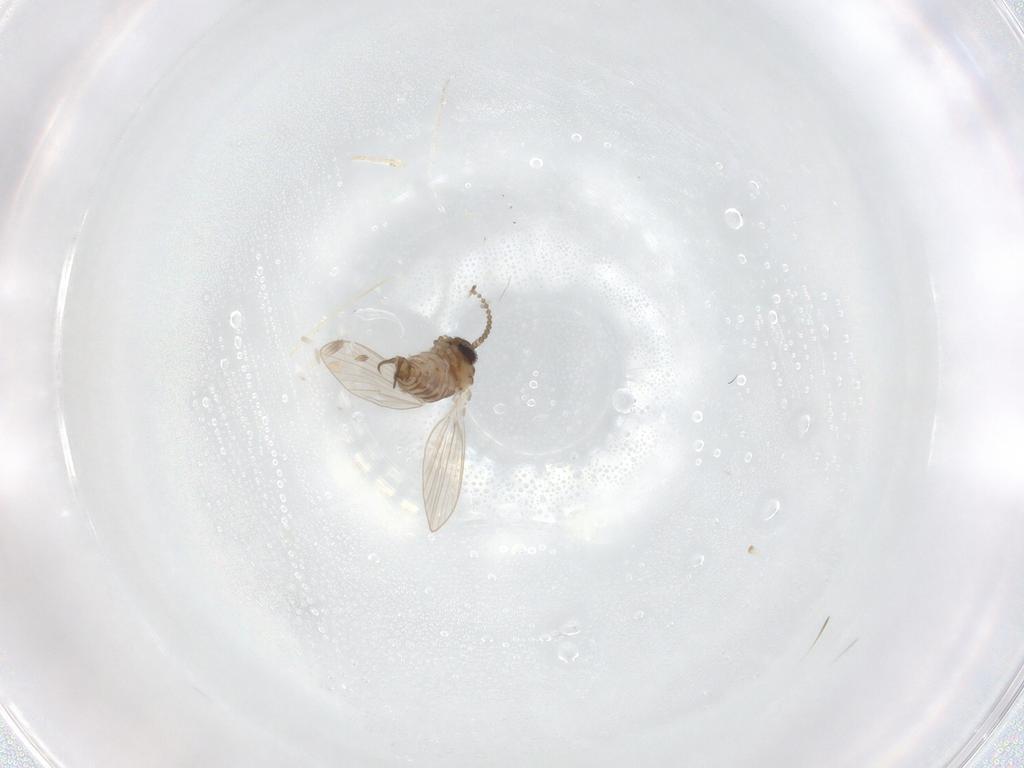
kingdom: Animalia
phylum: Arthropoda
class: Insecta
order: Diptera
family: Psychodidae
